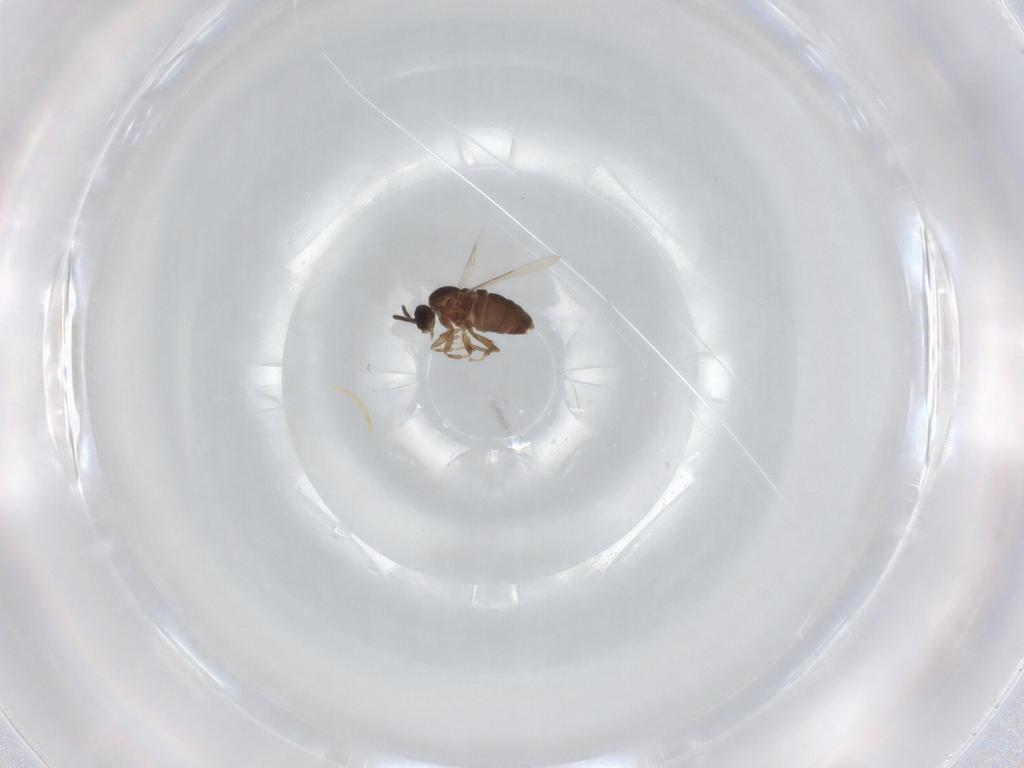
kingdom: Animalia
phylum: Arthropoda
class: Insecta
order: Diptera
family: Scatopsidae
